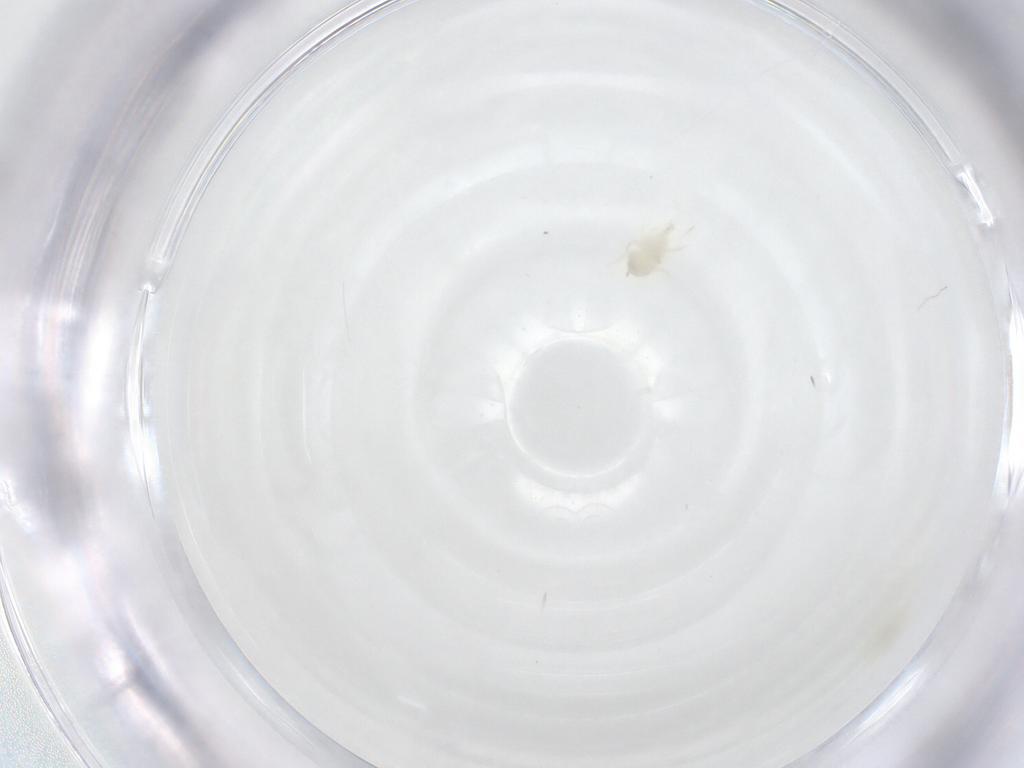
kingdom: Animalia
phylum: Arthropoda
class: Arachnida
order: Mesostigmata
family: Phytoseiidae
